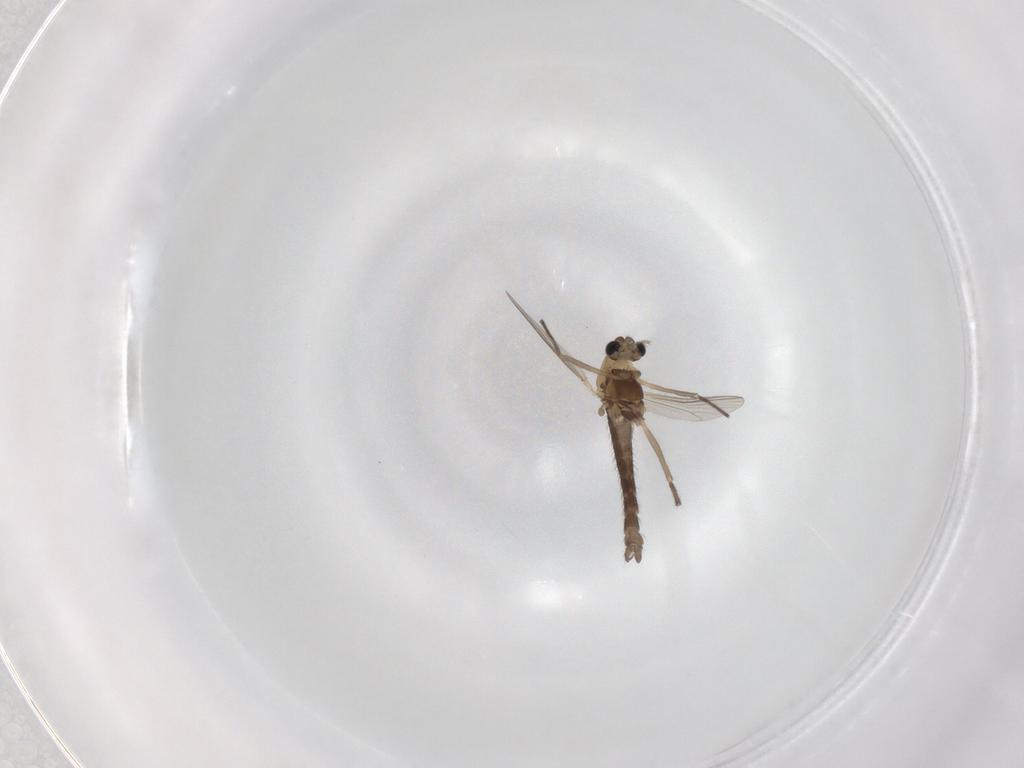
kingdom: Animalia
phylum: Arthropoda
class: Insecta
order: Diptera
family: Chironomidae
